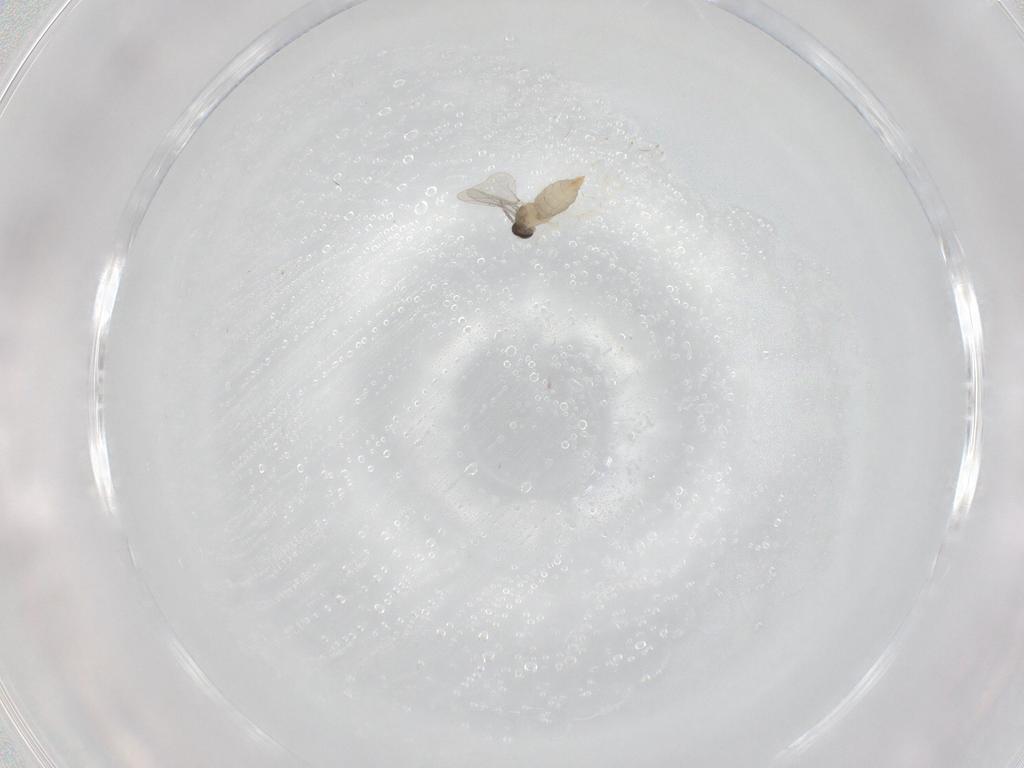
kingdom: Animalia
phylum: Arthropoda
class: Insecta
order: Diptera
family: Cecidomyiidae
